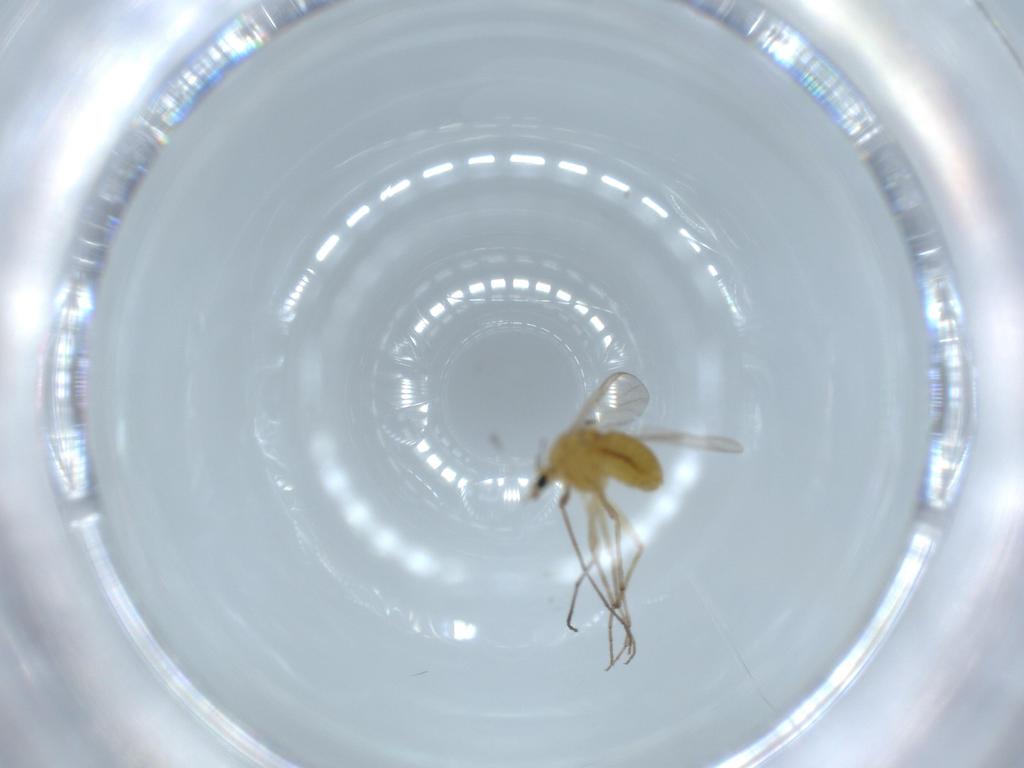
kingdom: Animalia
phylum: Arthropoda
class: Insecta
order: Diptera
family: Chironomidae
